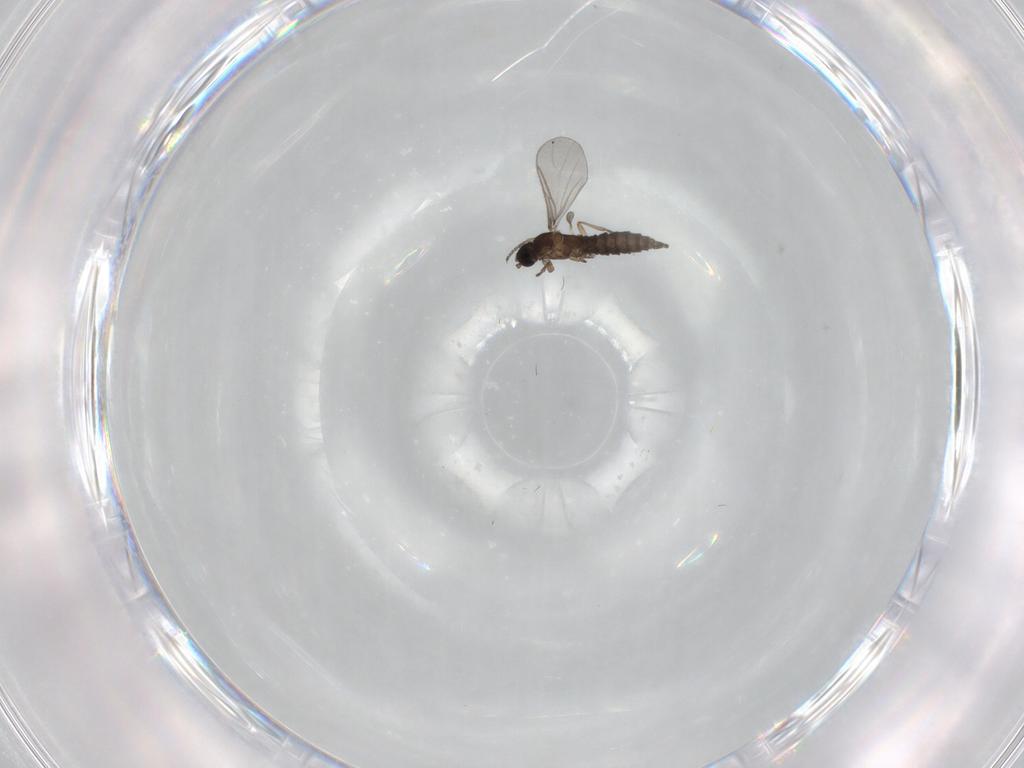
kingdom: Animalia
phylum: Arthropoda
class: Insecta
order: Diptera
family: Sciaridae
